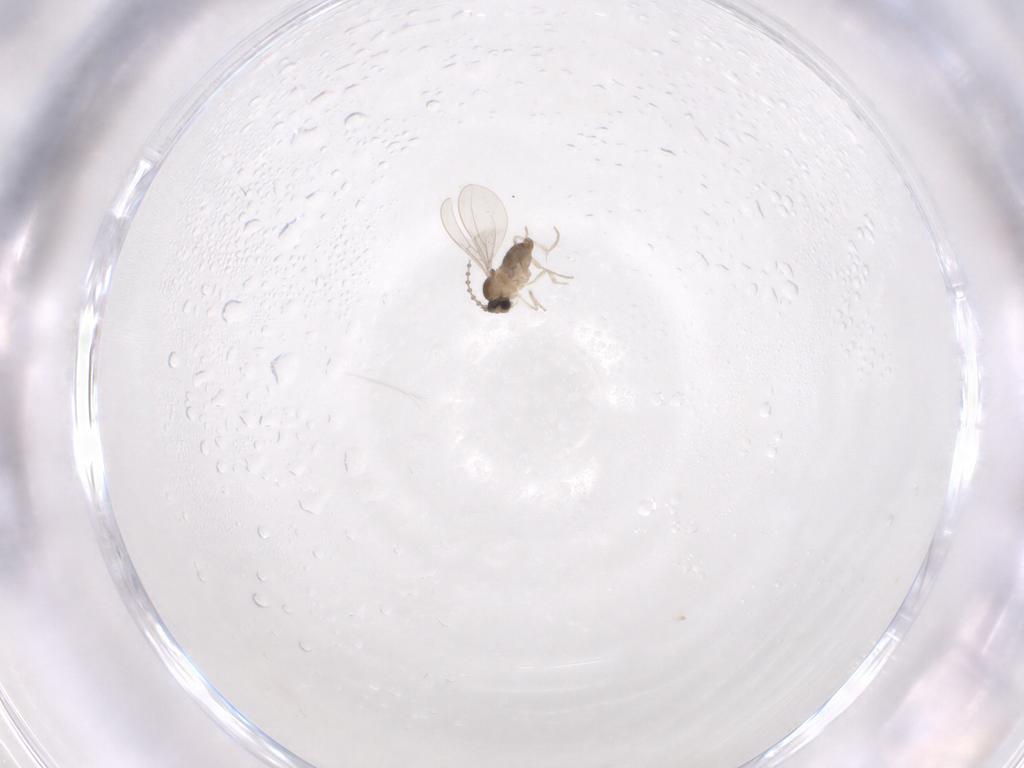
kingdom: Animalia
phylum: Arthropoda
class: Insecta
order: Diptera
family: Cecidomyiidae
